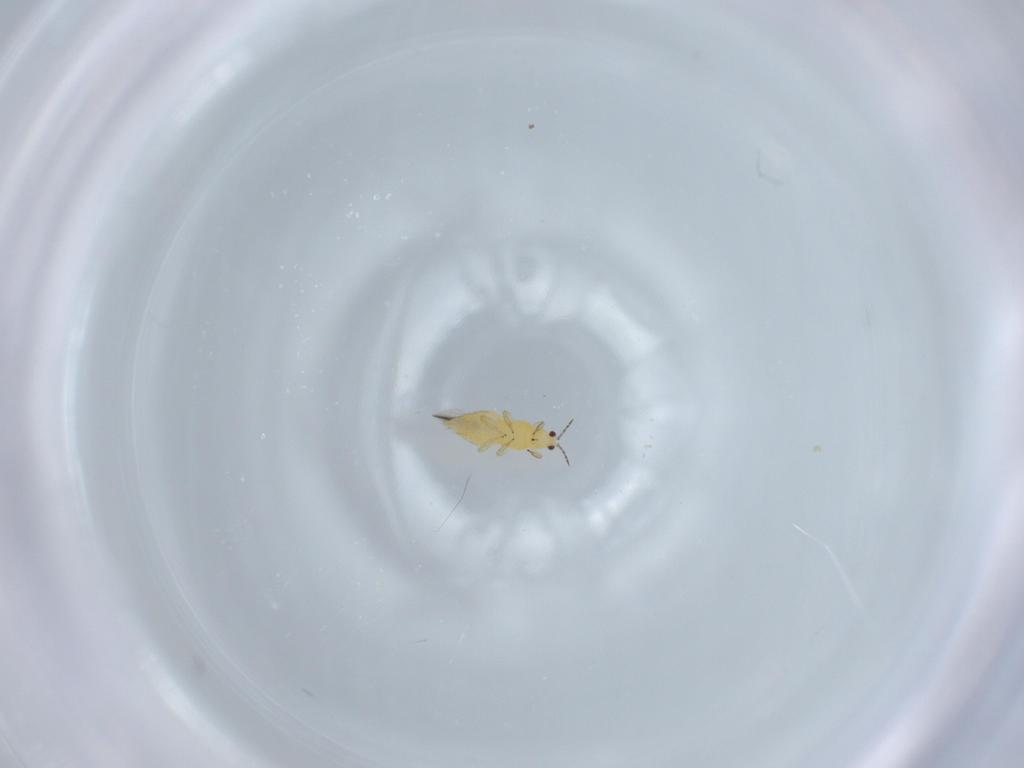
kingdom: Animalia
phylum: Arthropoda
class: Insecta
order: Thysanoptera
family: Thripidae
